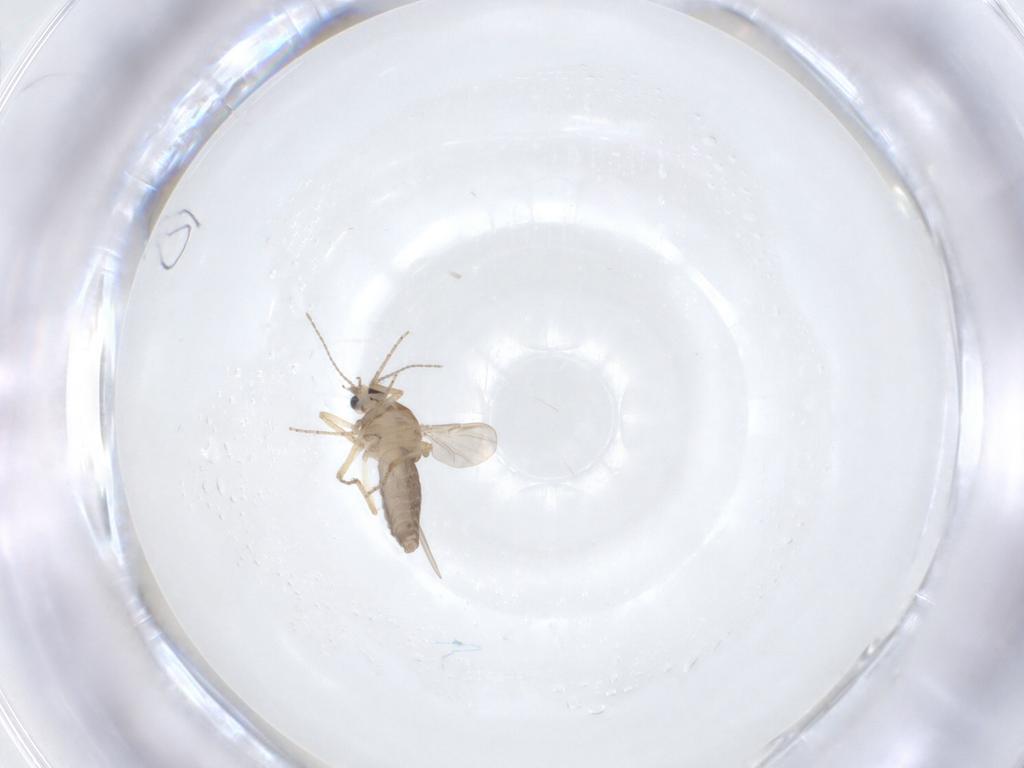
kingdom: Animalia
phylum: Arthropoda
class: Insecta
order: Diptera
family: Ceratopogonidae
